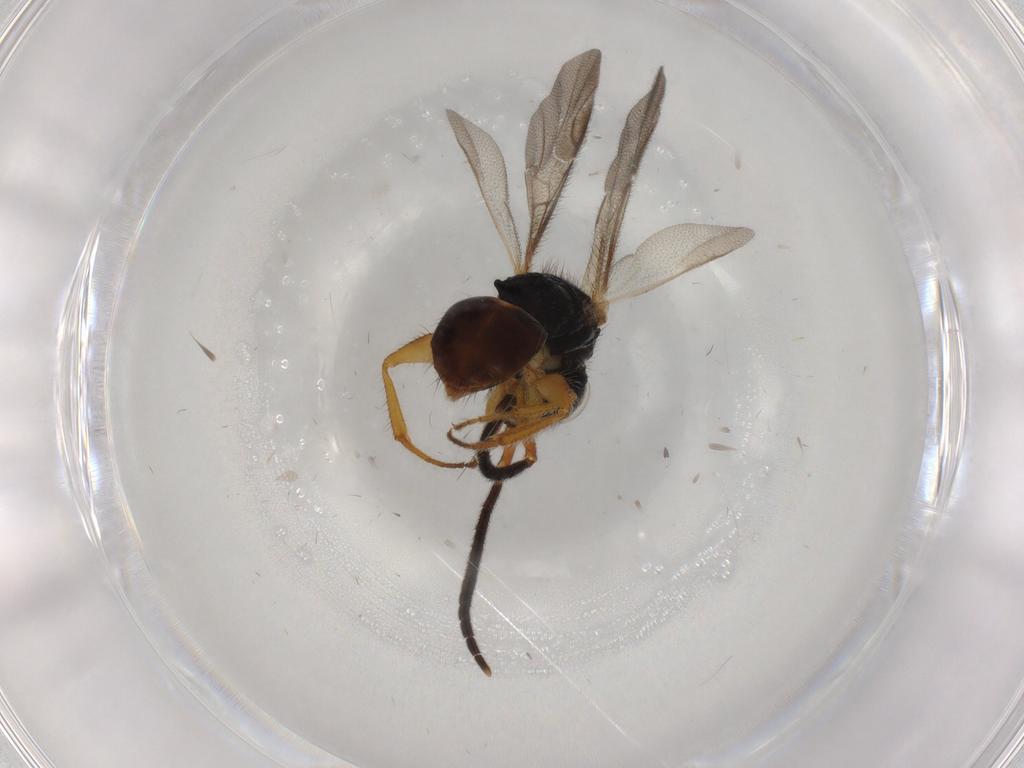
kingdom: Animalia
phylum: Arthropoda
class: Insecta
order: Hymenoptera
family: Chrysididae
